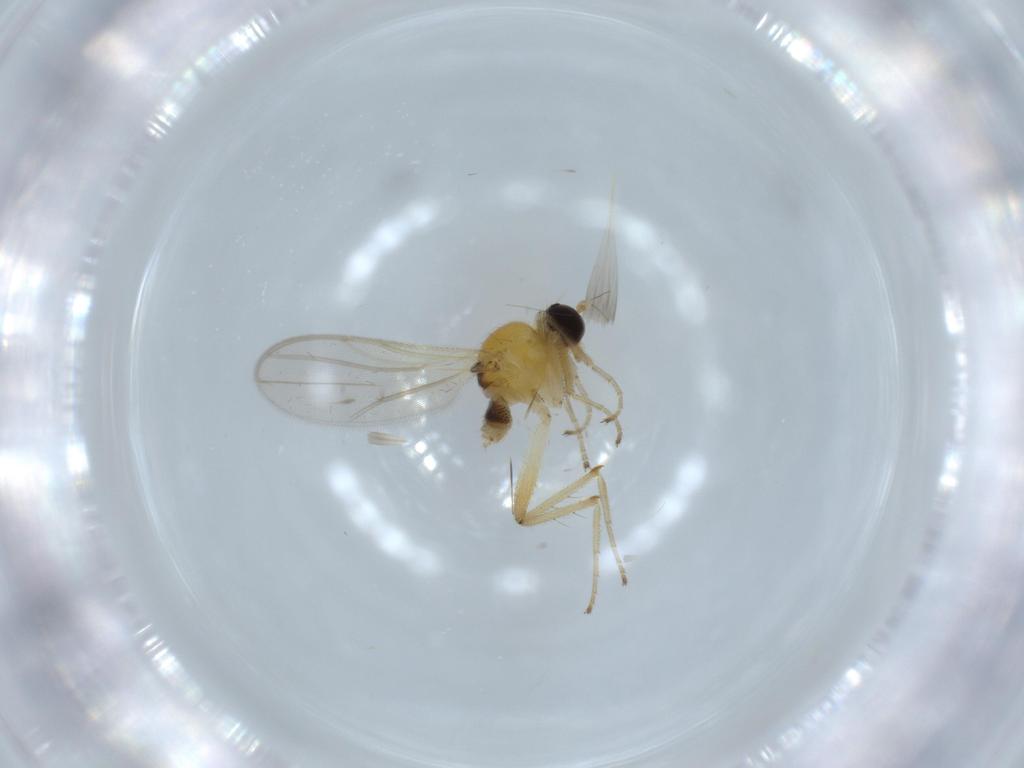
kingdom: Animalia
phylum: Arthropoda
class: Insecta
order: Diptera
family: Hybotidae
